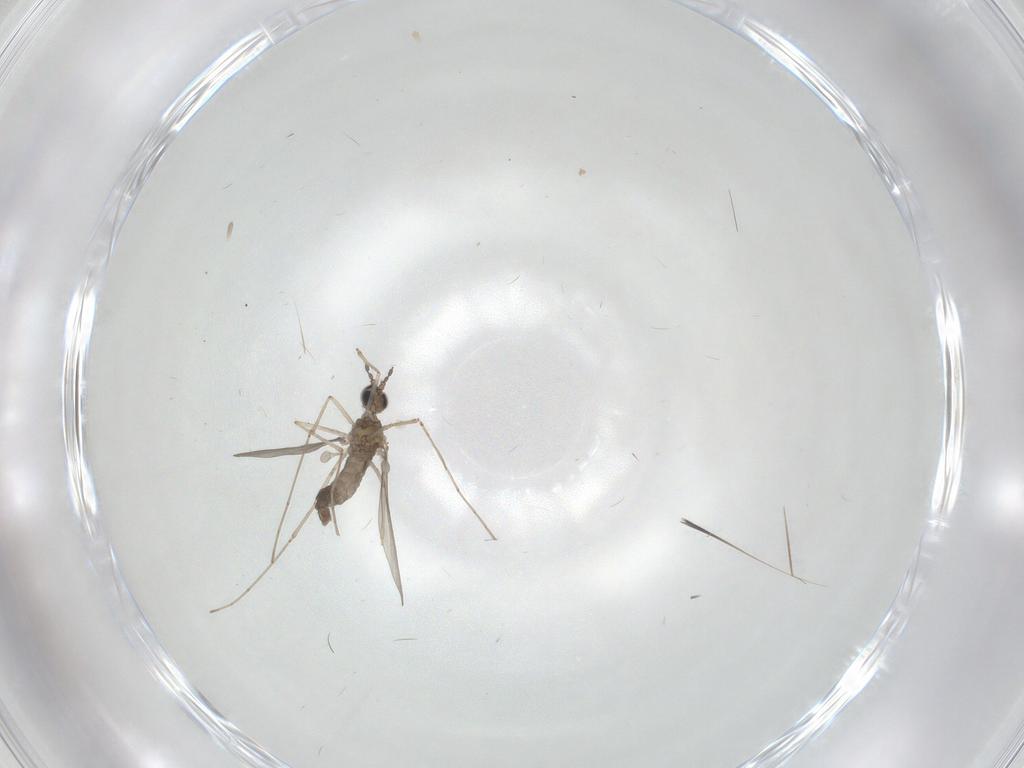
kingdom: Animalia
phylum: Arthropoda
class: Insecta
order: Diptera
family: Cecidomyiidae
